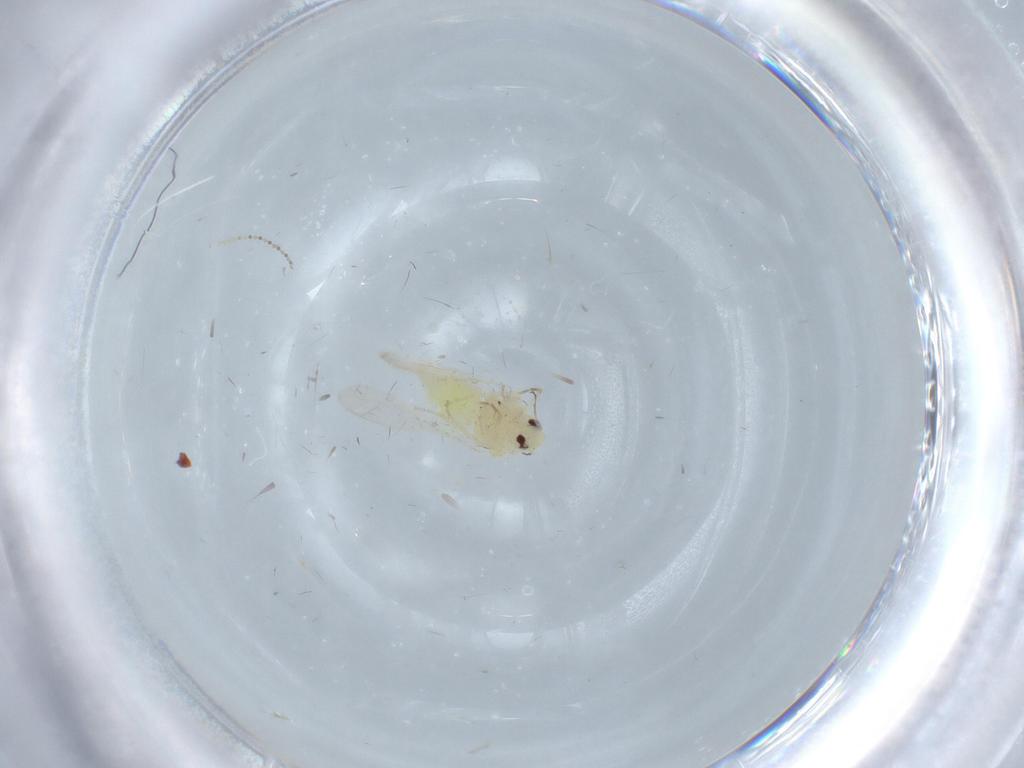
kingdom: Animalia
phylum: Arthropoda
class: Insecta
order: Hemiptera
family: Aleyrodidae
